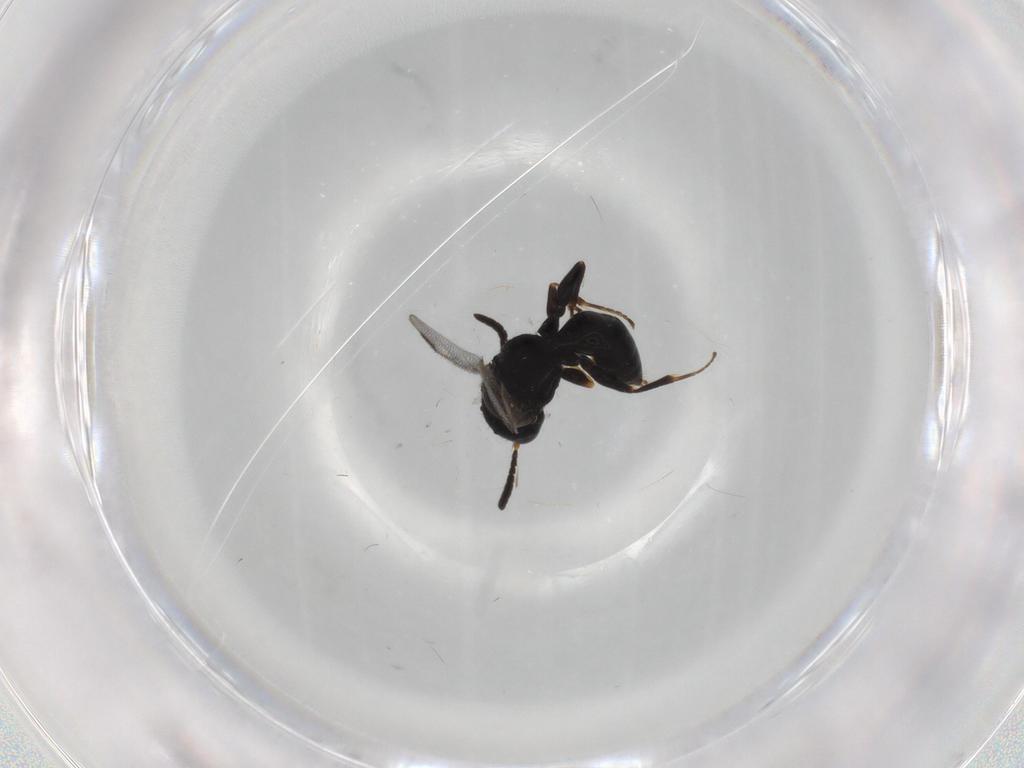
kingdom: Animalia
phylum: Arthropoda
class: Insecta
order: Hymenoptera
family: Dryinidae
